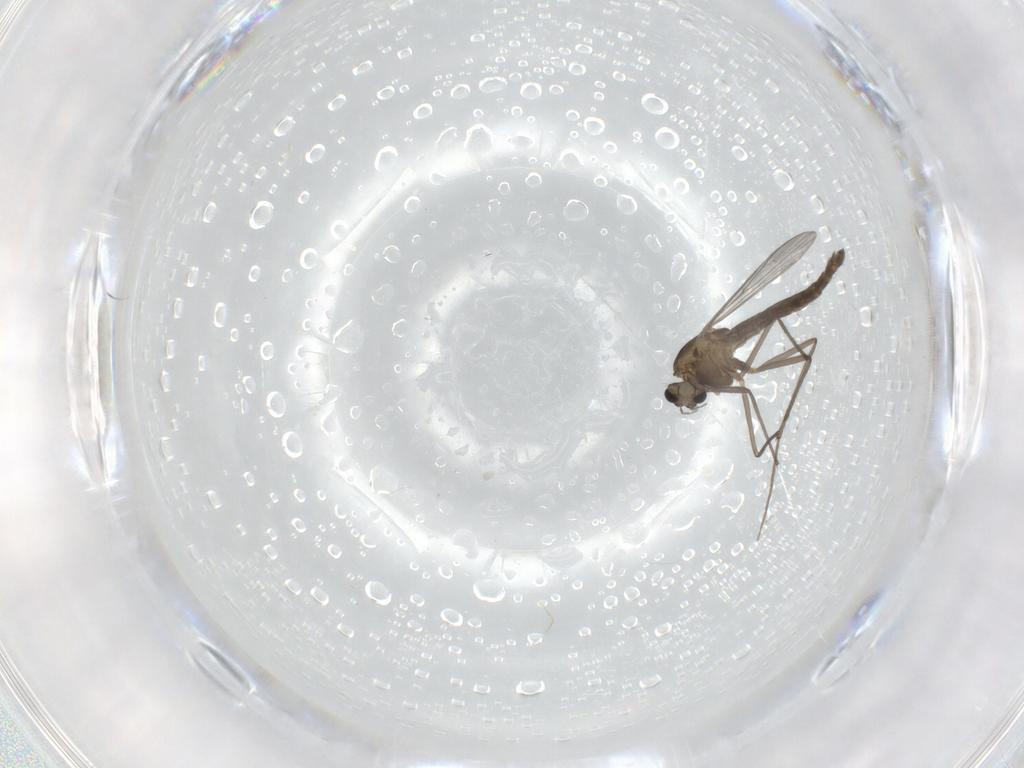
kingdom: Animalia
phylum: Arthropoda
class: Insecta
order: Diptera
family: Chironomidae
